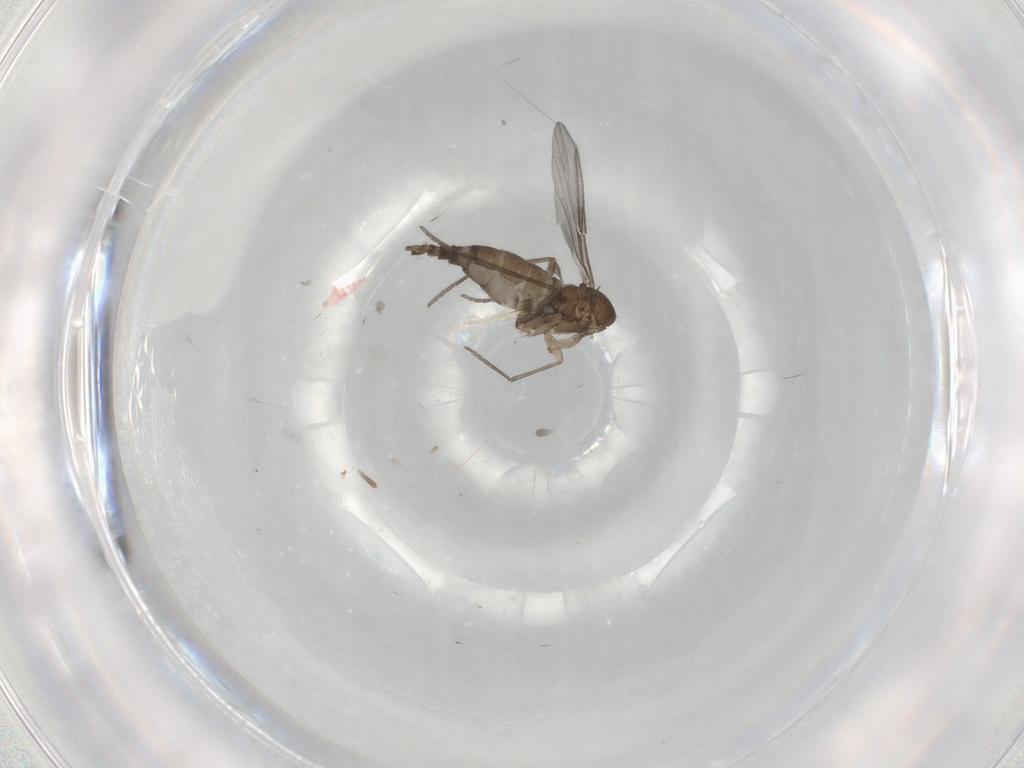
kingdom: Animalia
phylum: Arthropoda
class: Insecta
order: Diptera
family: Sciaridae
